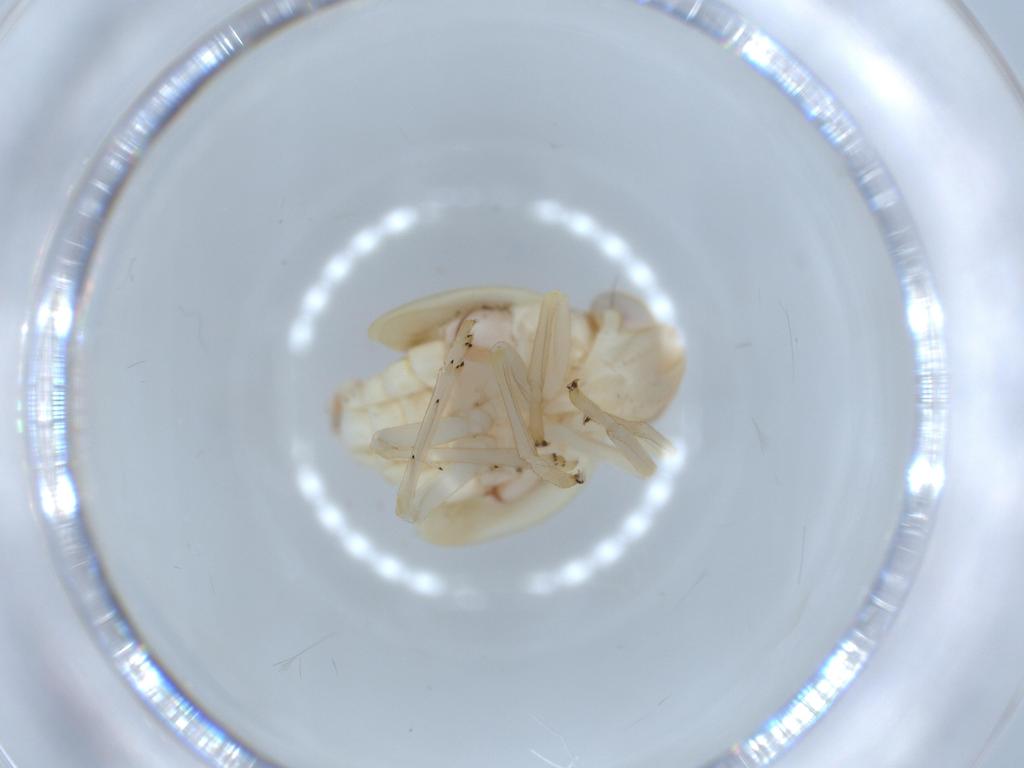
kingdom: Animalia
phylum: Arthropoda
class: Insecta
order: Hemiptera
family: Nogodinidae
